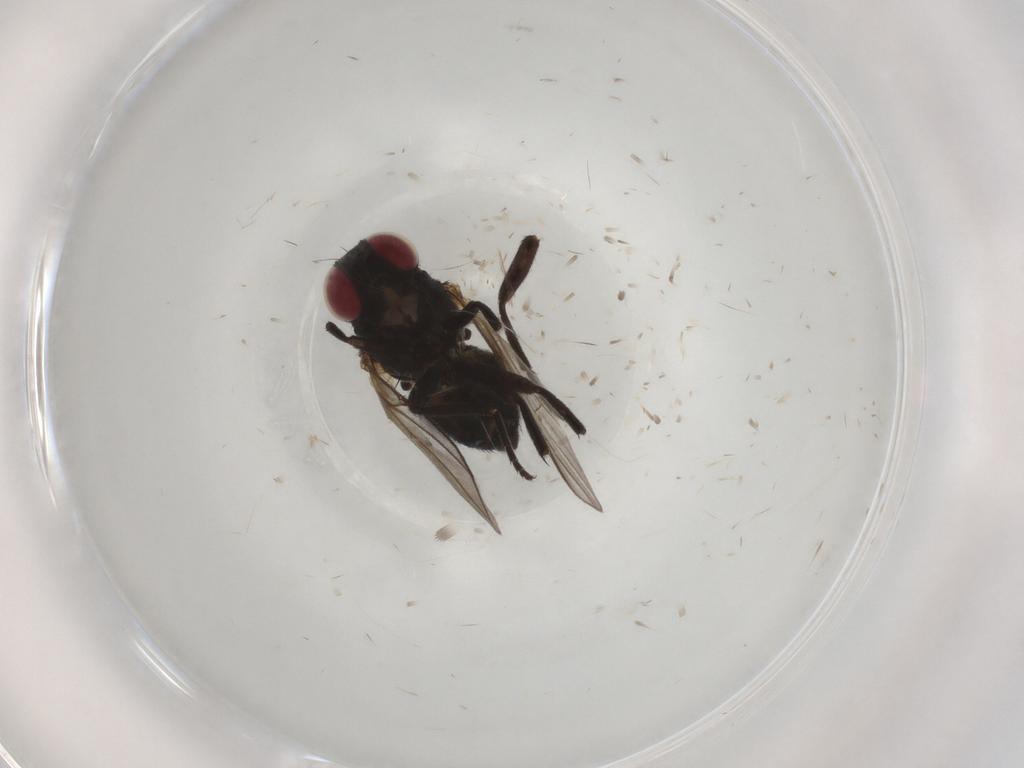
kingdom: Animalia
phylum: Arthropoda
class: Insecta
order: Diptera
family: Agromyzidae
